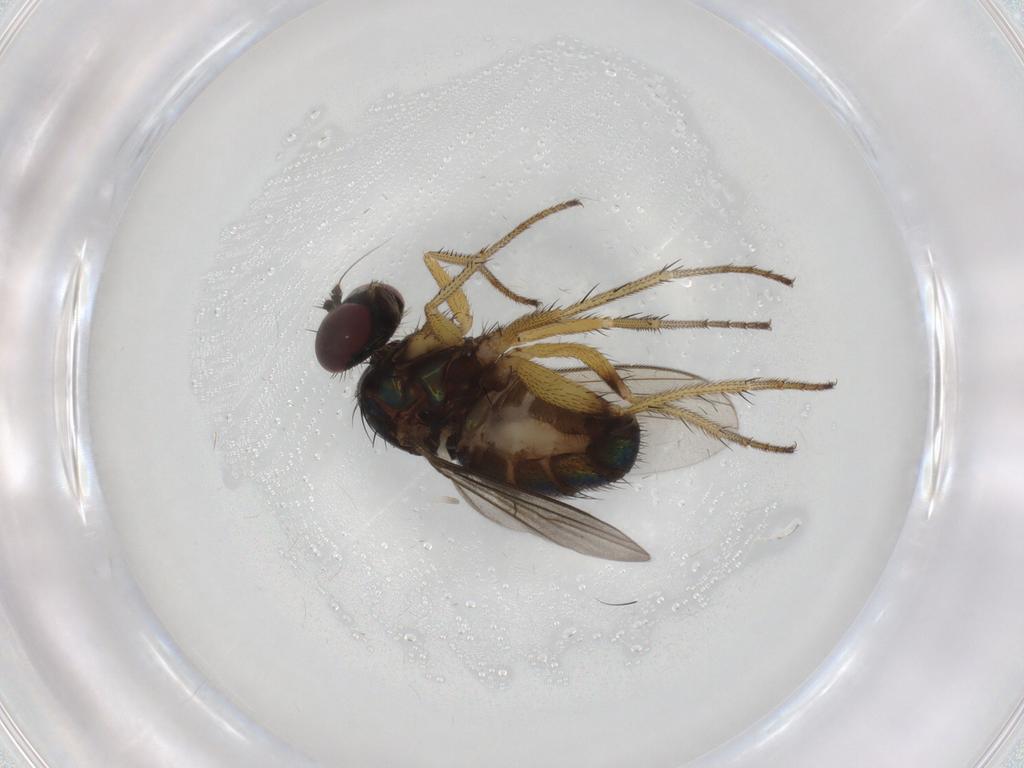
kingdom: Animalia
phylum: Arthropoda
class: Insecta
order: Diptera
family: Dolichopodidae
